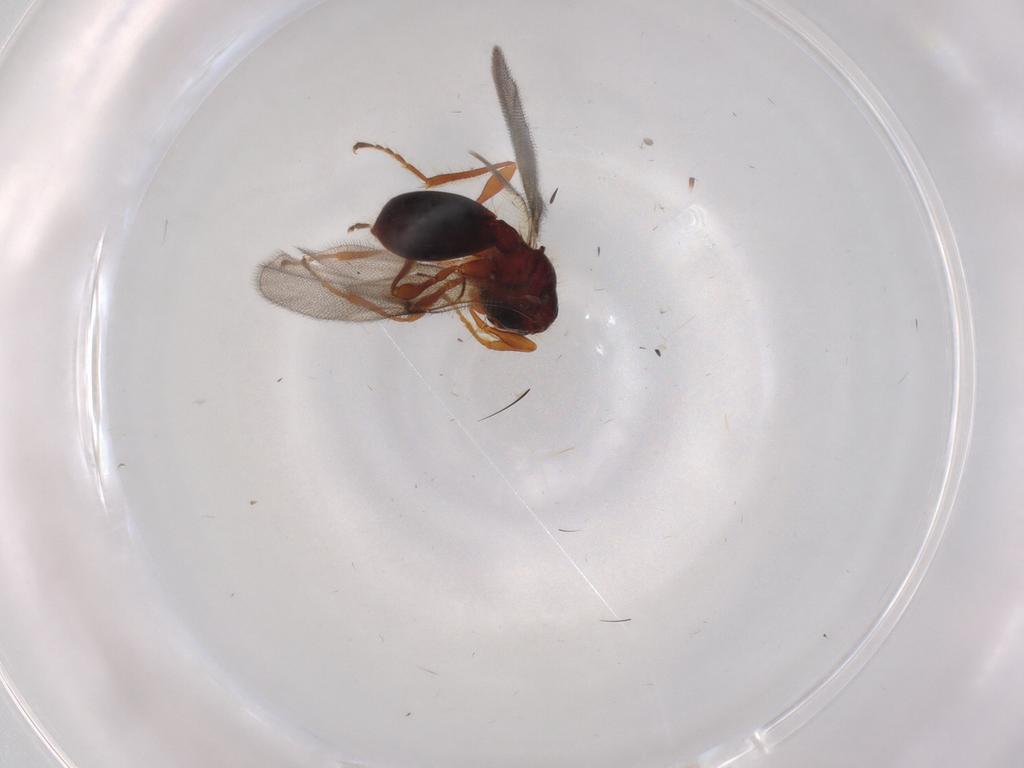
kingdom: Animalia
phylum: Arthropoda
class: Insecta
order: Hymenoptera
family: Diapriidae
